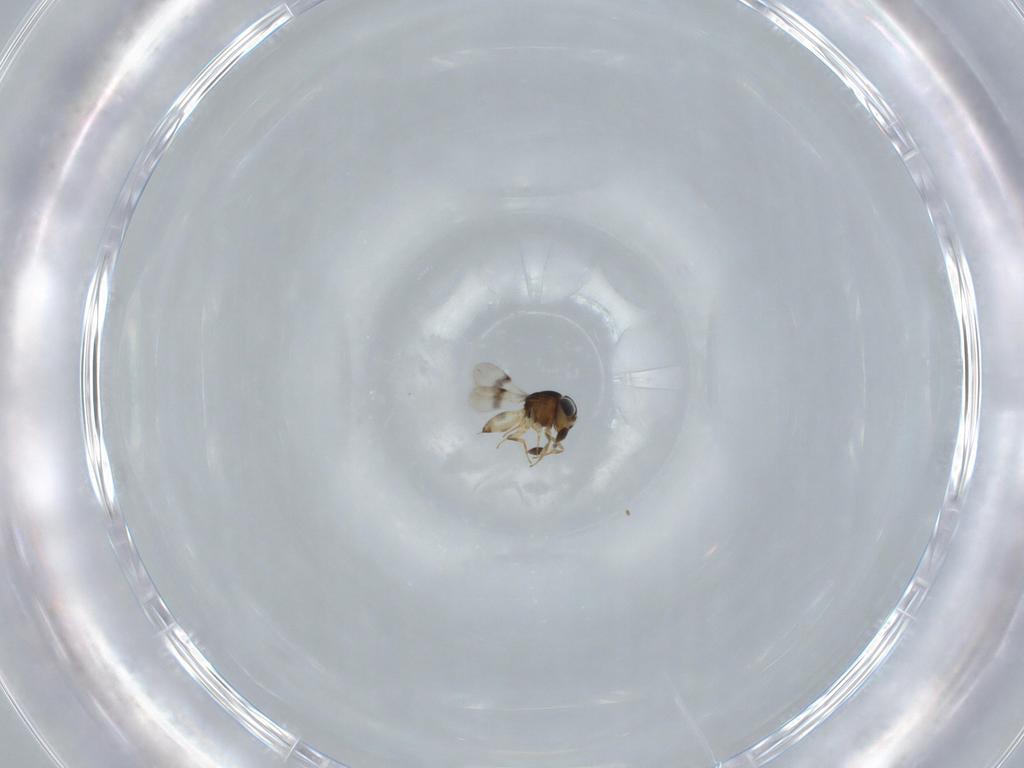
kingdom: Animalia
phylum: Arthropoda
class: Arachnida
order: Araneae
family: Pholcidae
